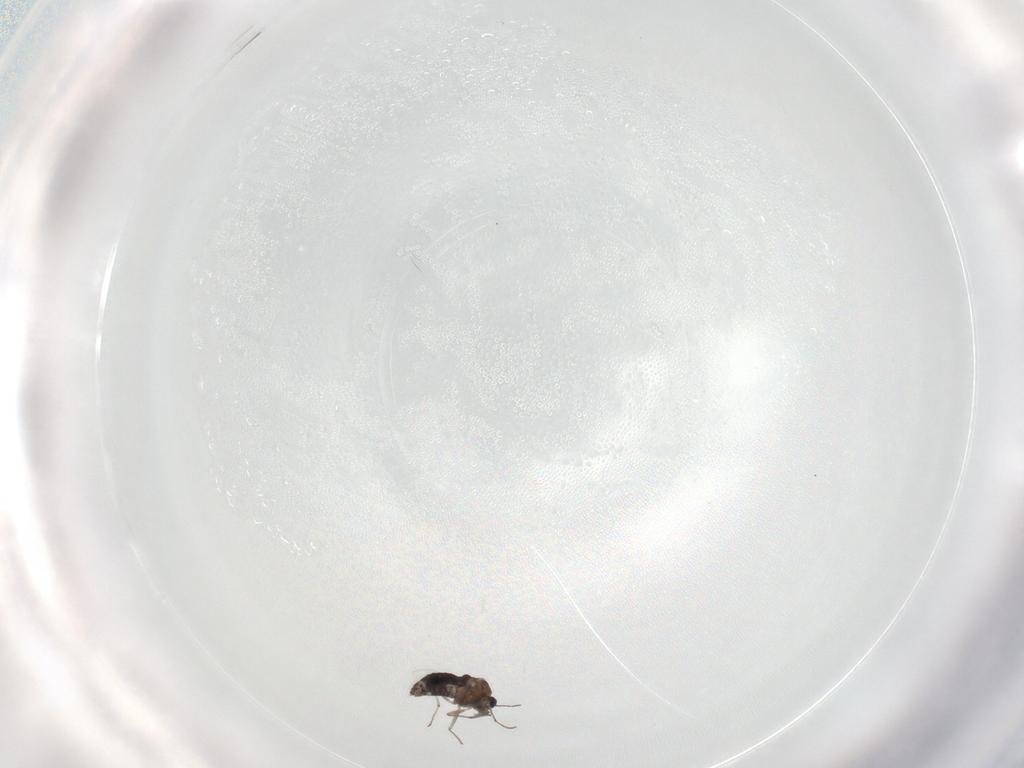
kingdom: Animalia
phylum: Arthropoda
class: Insecta
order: Diptera
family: Chironomidae
